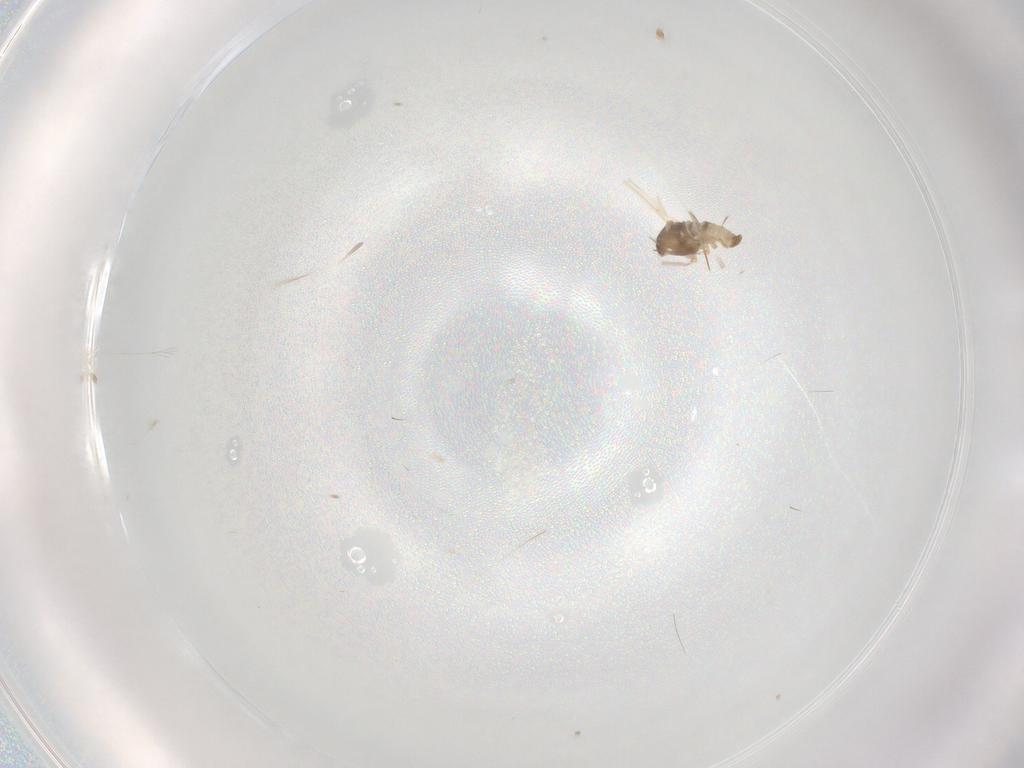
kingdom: Animalia
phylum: Arthropoda
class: Insecta
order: Diptera
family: Cecidomyiidae
